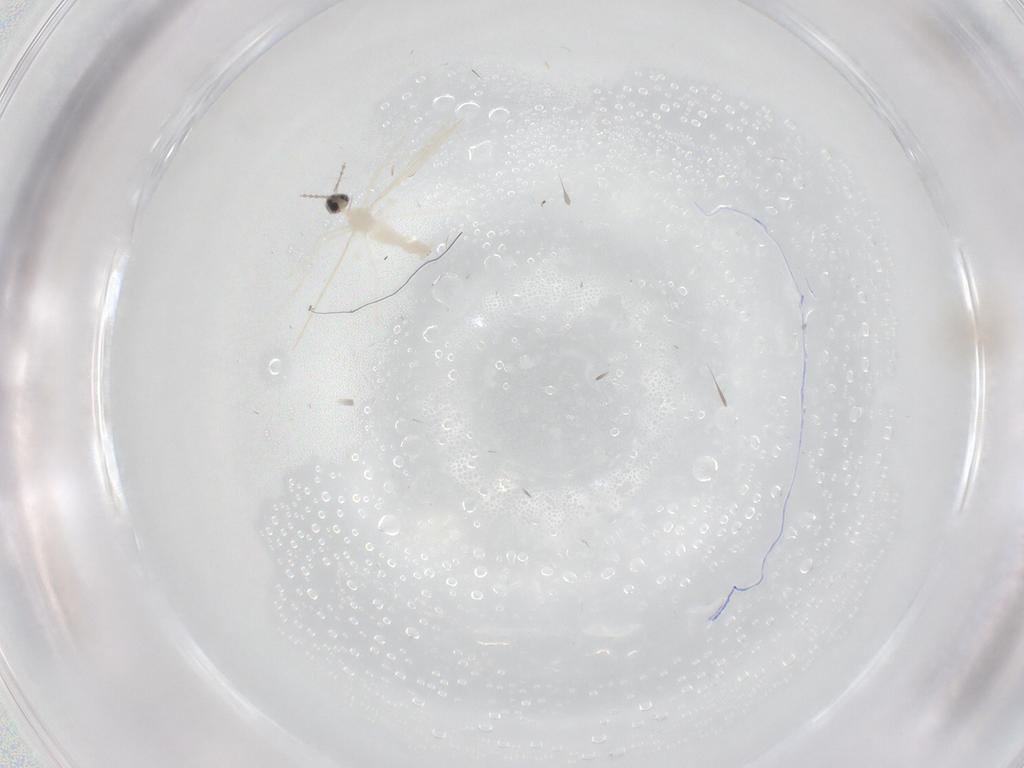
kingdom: Animalia
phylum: Arthropoda
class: Insecta
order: Diptera
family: Phoridae
